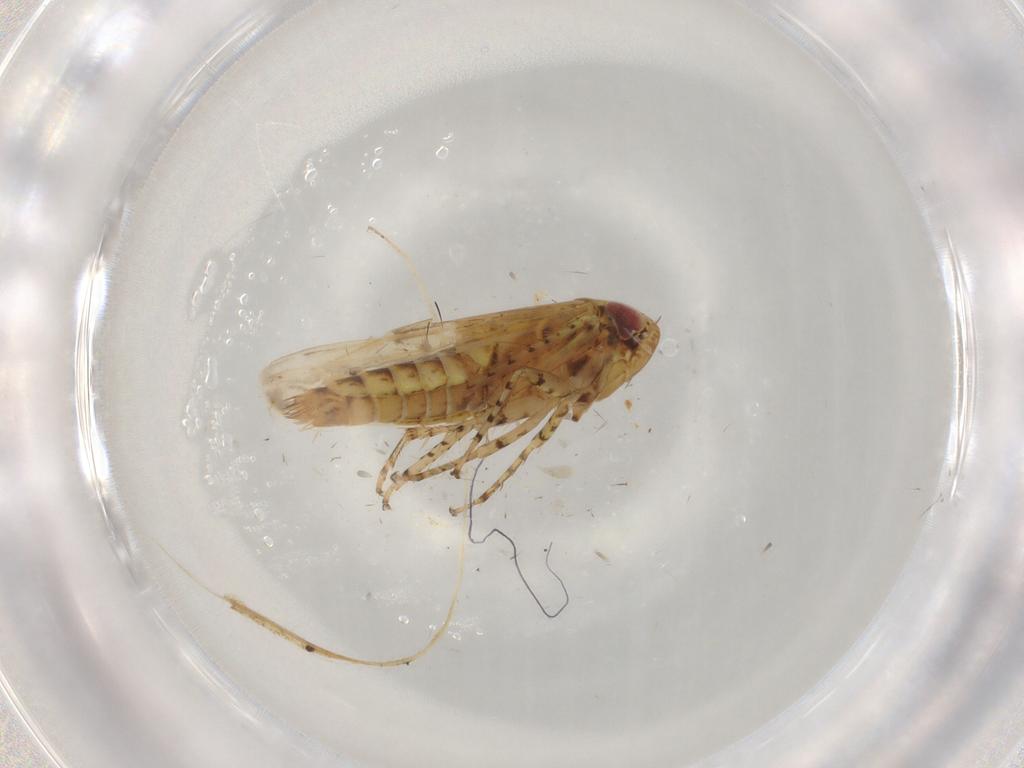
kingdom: Animalia
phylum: Arthropoda
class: Insecta
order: Hemiptera
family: Cicadellidae
